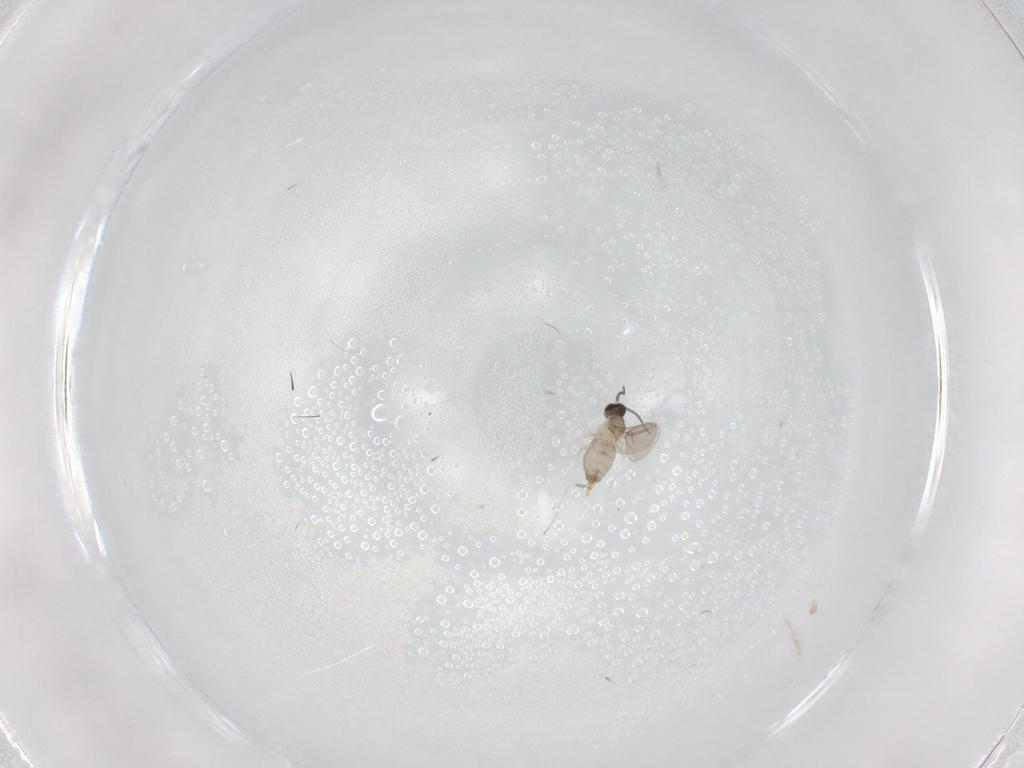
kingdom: Animalia
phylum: Arthropoda
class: Insecta
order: Diptera
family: Cecidomyiidae
